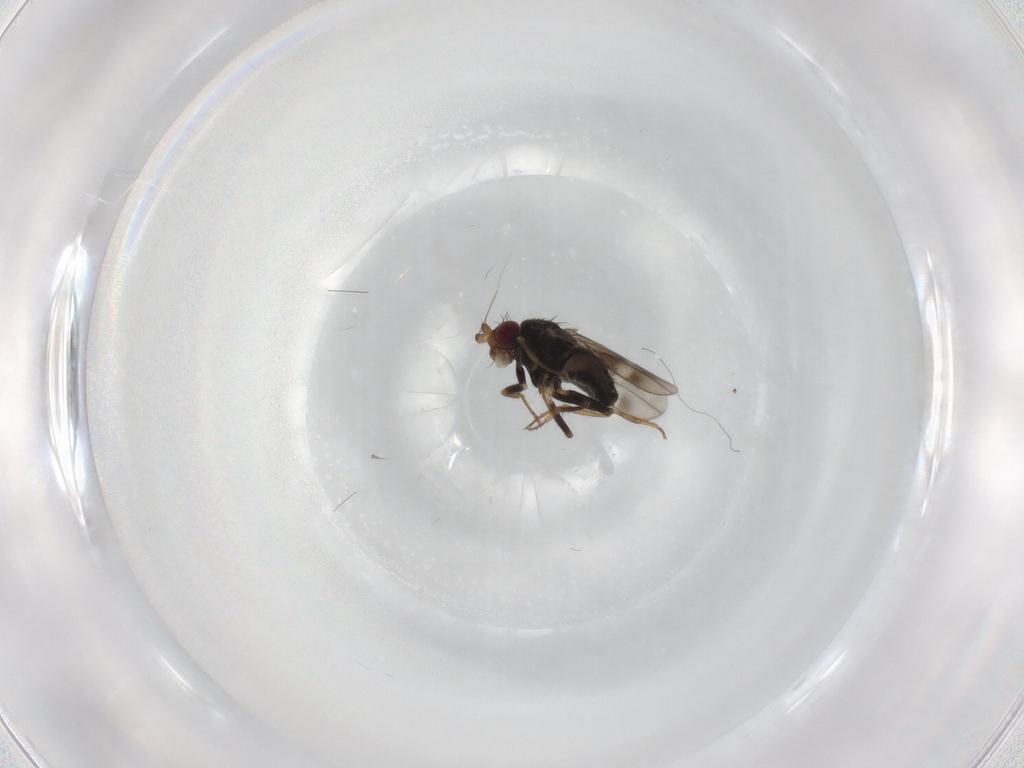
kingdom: Animalia
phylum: Arthropoda
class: Insecta
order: Diptera
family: Sphaeroceridae
